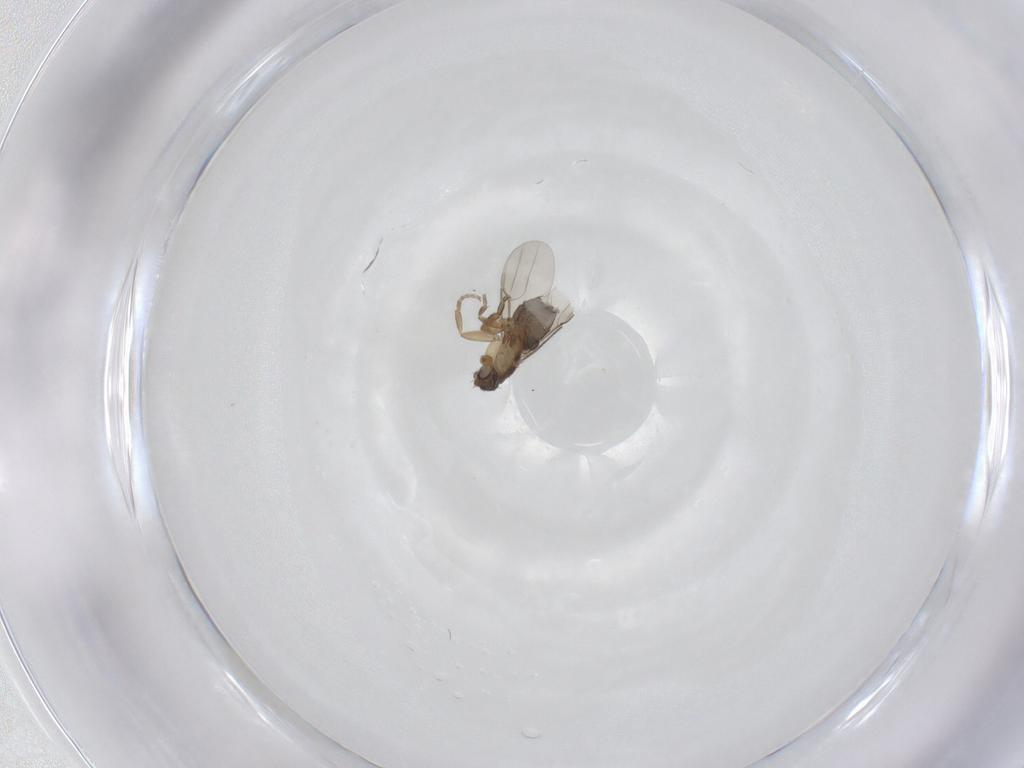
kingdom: Animalia
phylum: Arthropoda
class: Insecta
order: Diptera
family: Phoridae
